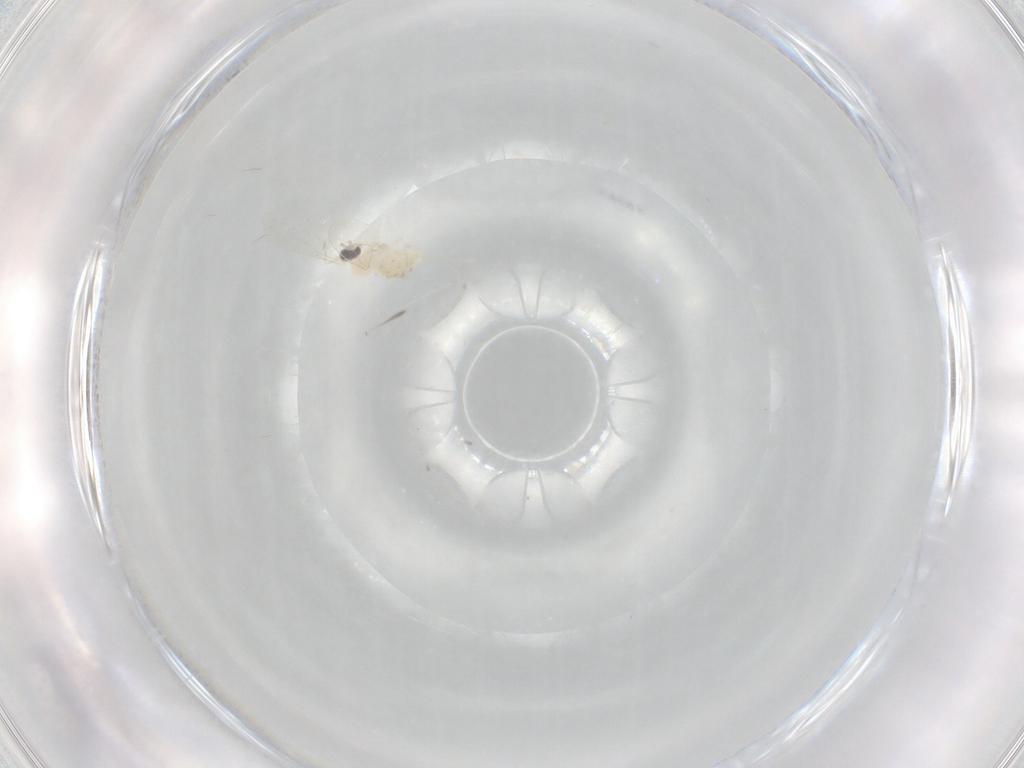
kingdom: Animalia
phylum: Arthropoda
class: Insecta
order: Diptera
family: Cecidomyiidae
